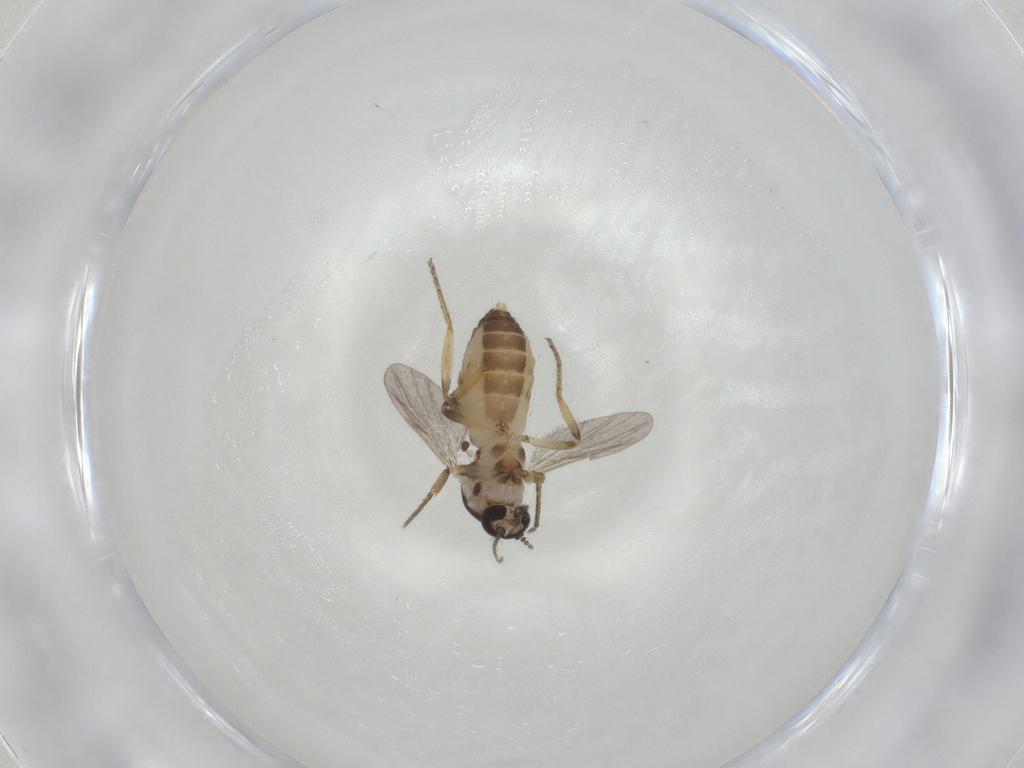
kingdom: Animalia
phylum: Arthropoda
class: Insecta
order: Diptera
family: Ceratopogonidae
